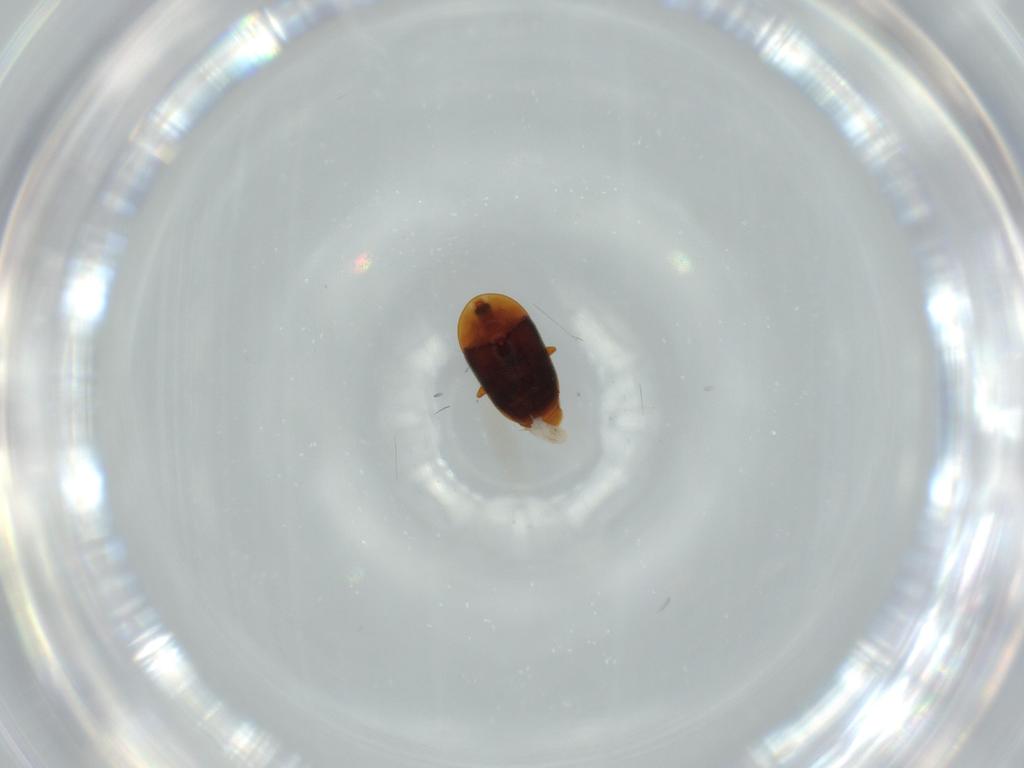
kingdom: Animalia
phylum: Arthropoda
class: Insecta
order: Coleoptera
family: Corylophidae
